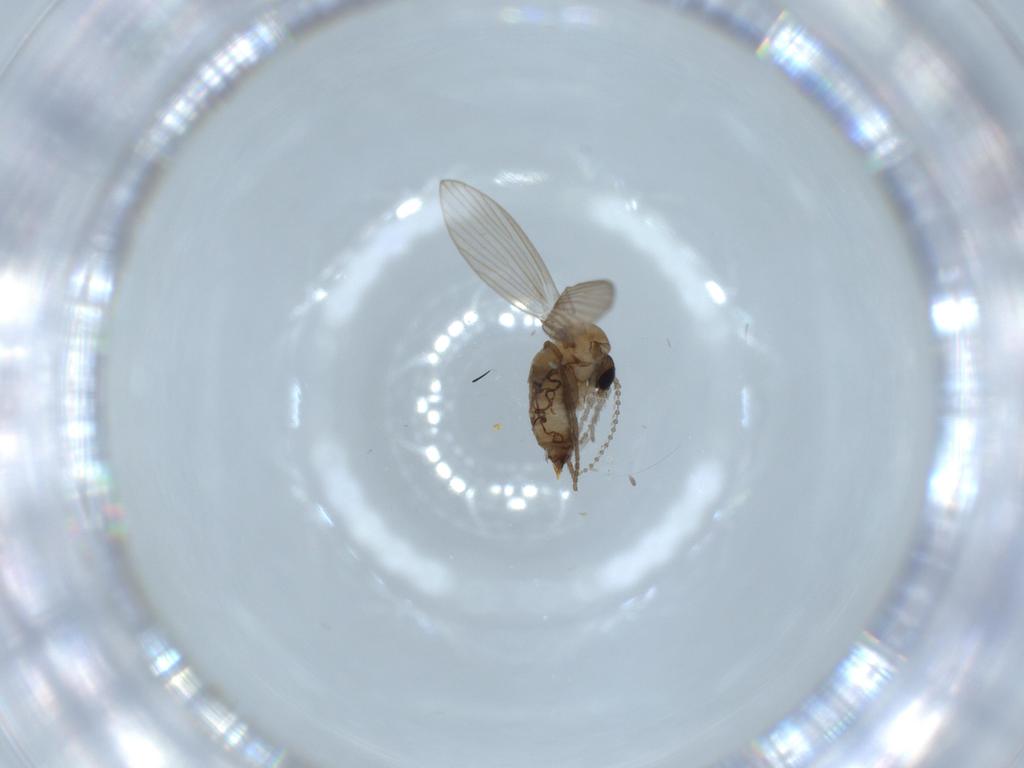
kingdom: Animalia
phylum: Arthropoda
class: Insecta
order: Diptera
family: Psychodidae
